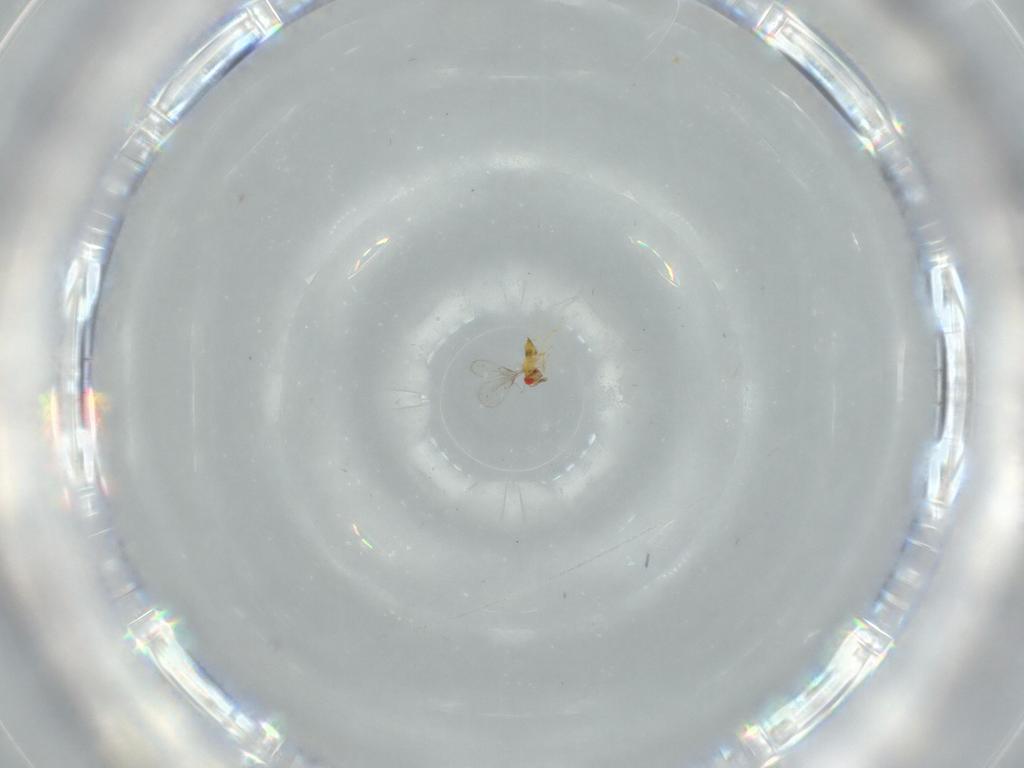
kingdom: Animalia
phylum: Arthropoda
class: Insecta
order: Hymenoptera
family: Trichogrammatidae
